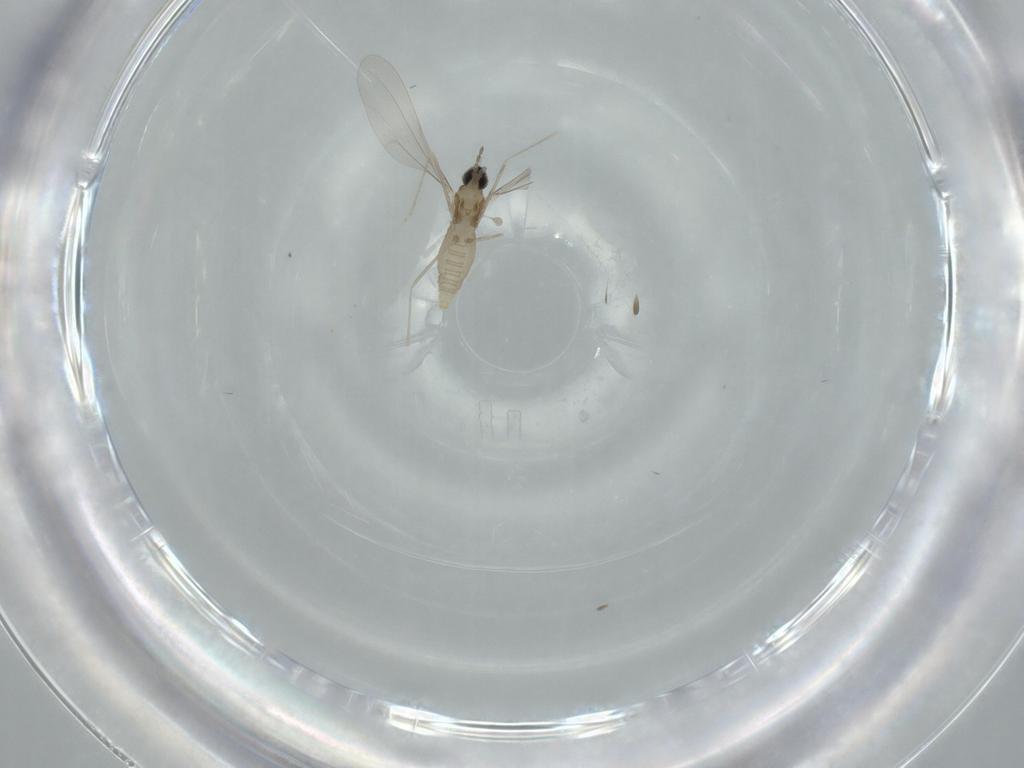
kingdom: Animalia
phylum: Arthropoda
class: Insecta
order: Diptera
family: Cecidomyiidae
